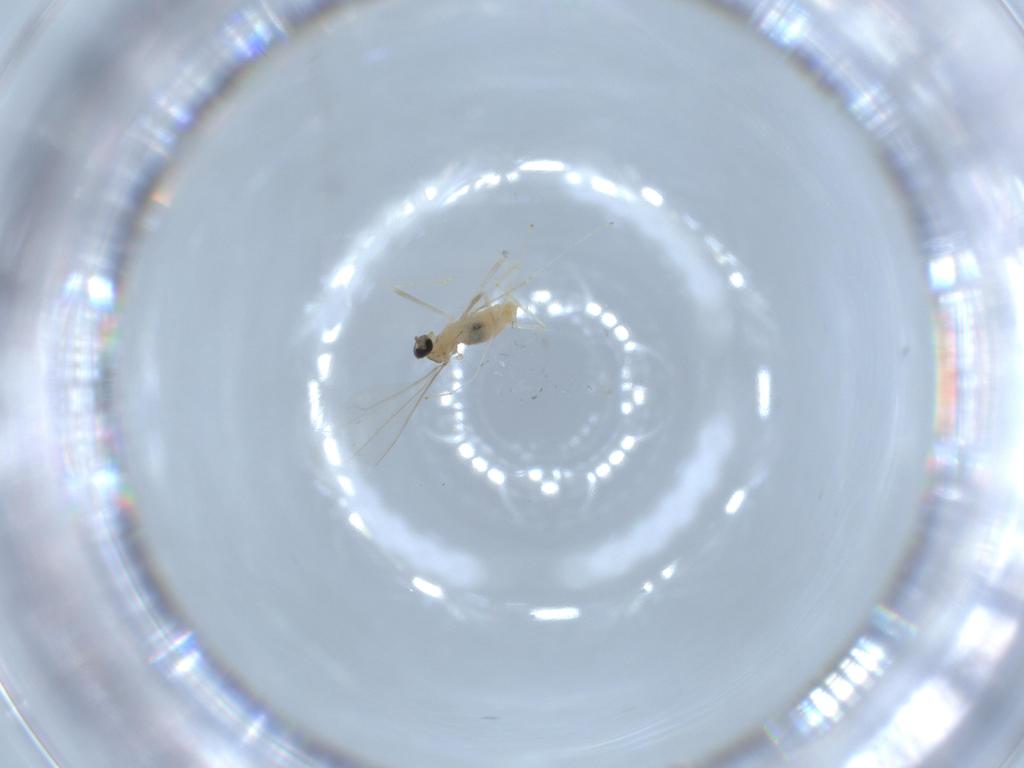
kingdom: Animalia
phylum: Arthropoda
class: Insecta
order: Diptera
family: Cecidomyiidae
